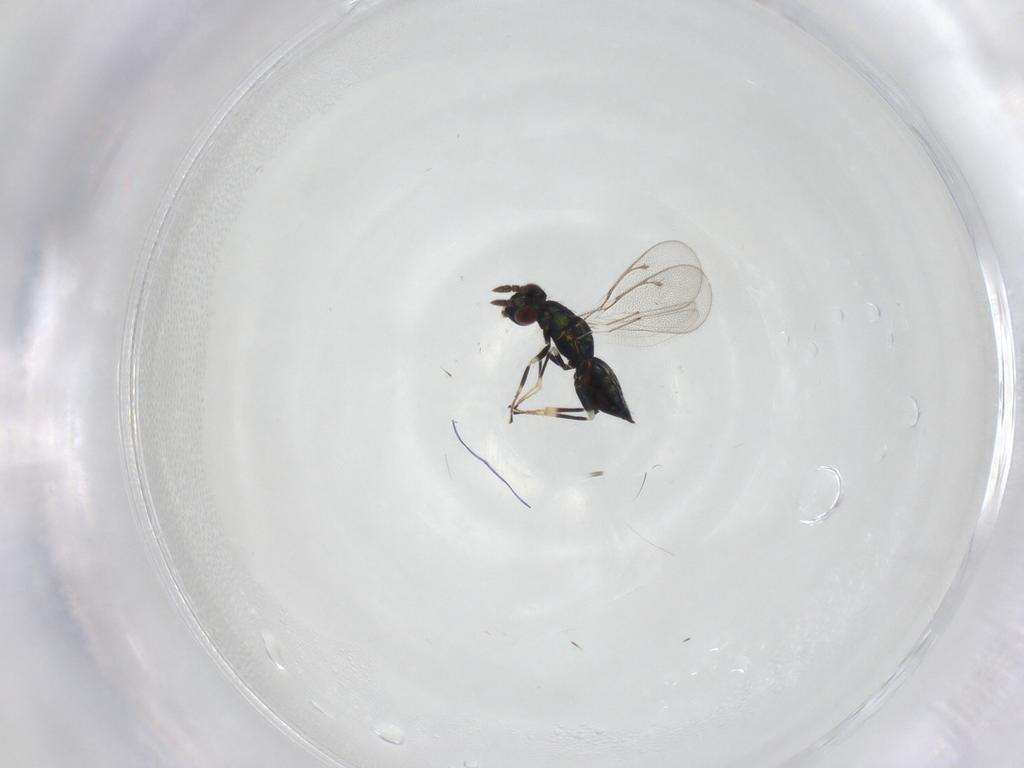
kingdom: Animalia
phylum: Arthropoda
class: Insecta
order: Hymenoptera
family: Eulophidae
